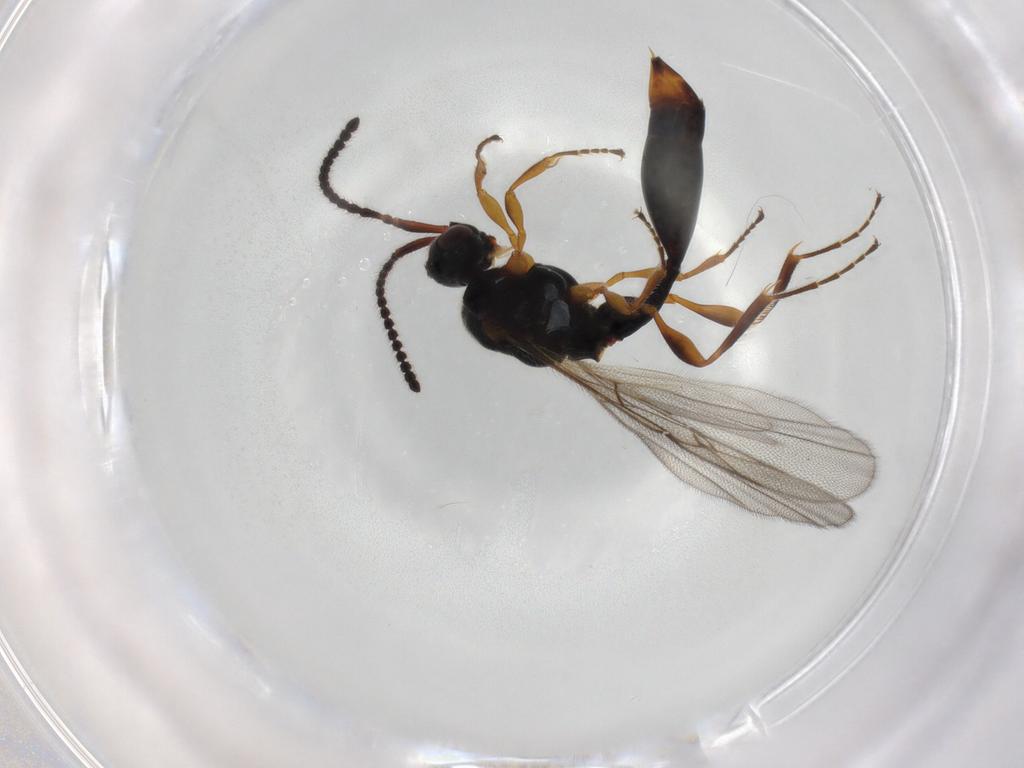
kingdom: Animalia
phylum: Arthropoda
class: Insecta
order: Hymenoptera
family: Diapriidae
